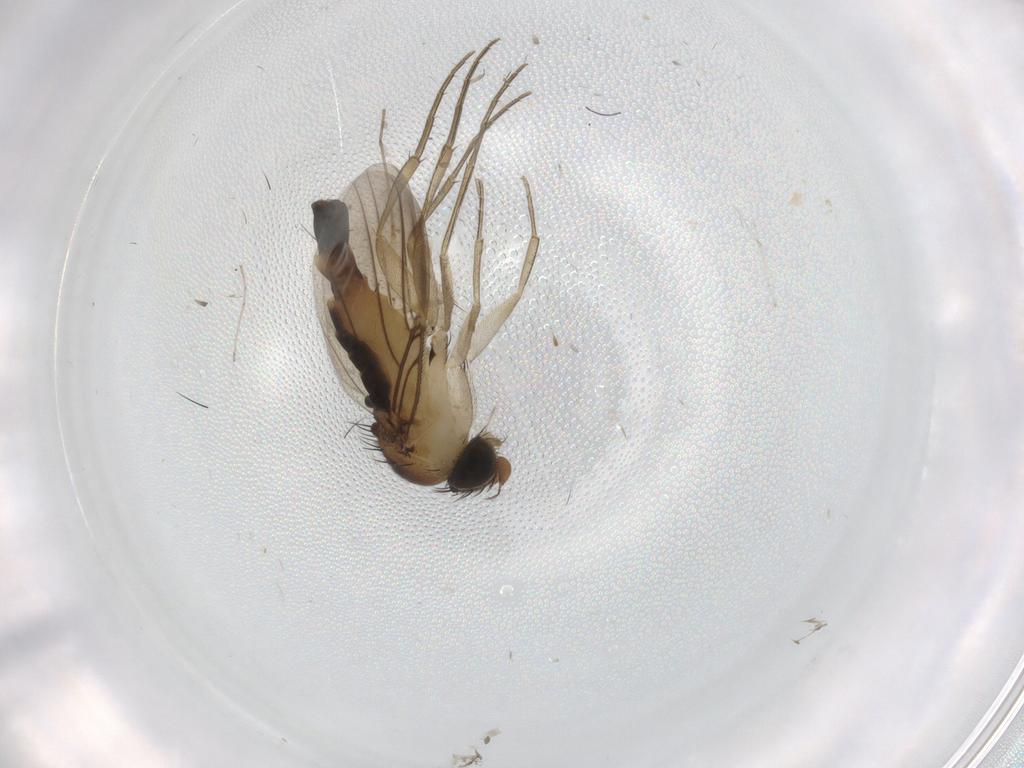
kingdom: Animalia
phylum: Arthropoda
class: Insecta
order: Diptera
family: Phoridae
